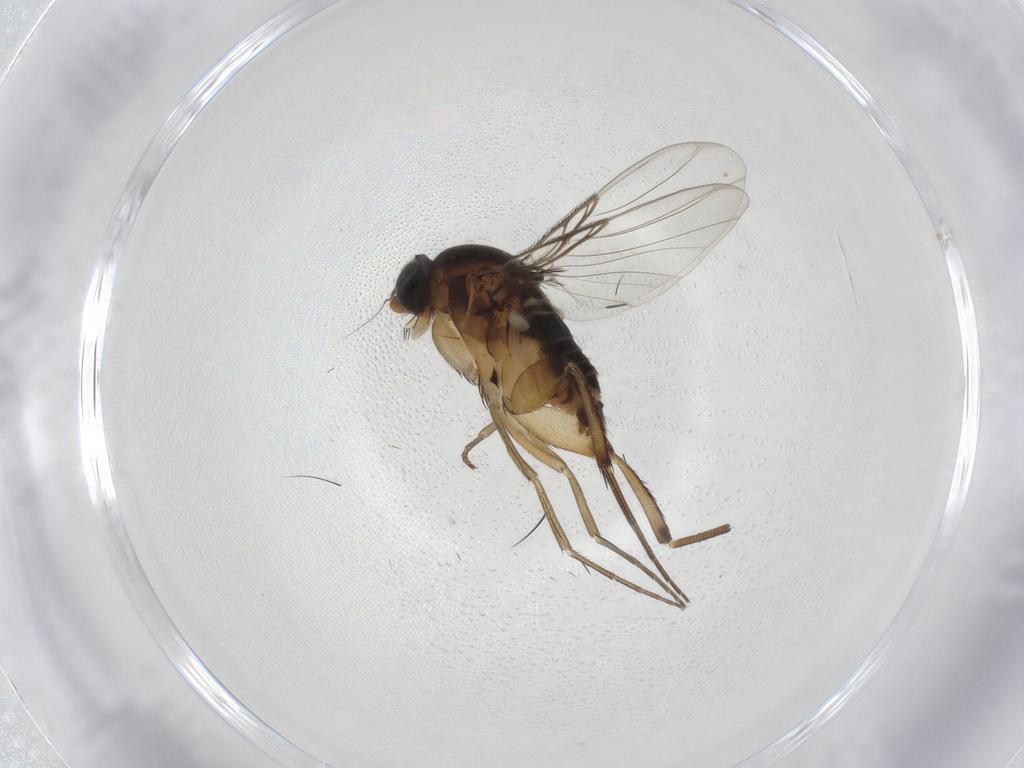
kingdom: Animalia
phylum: Arthropoda
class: Insecta
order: Diptera
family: Phoridae
